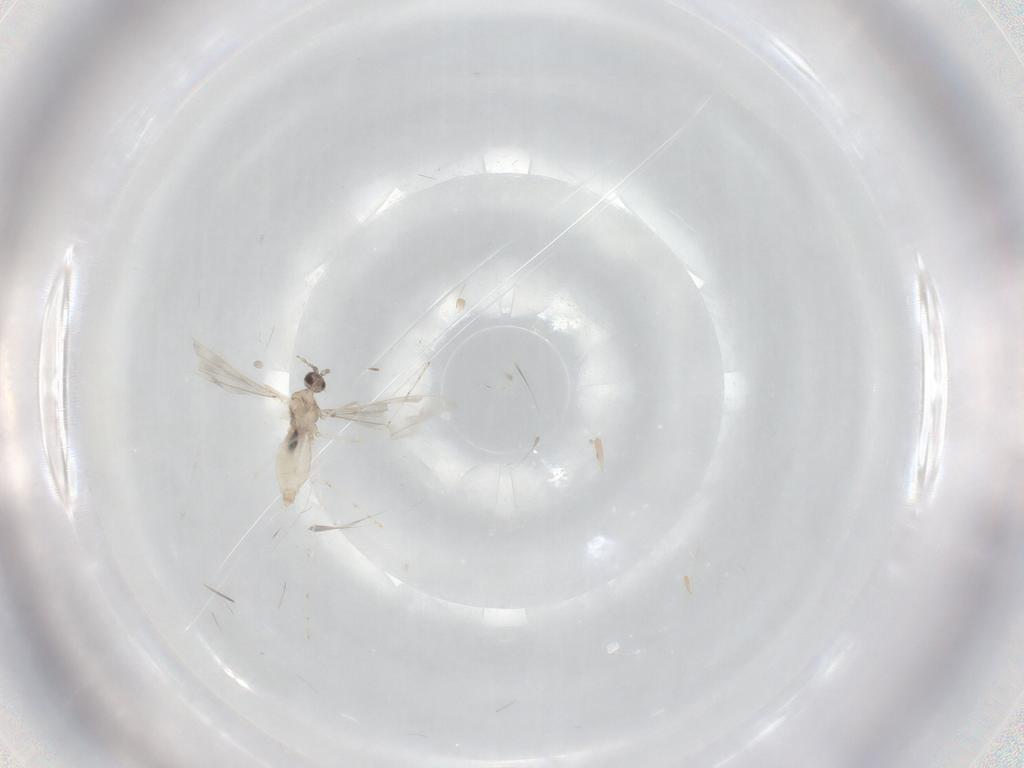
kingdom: Animalia
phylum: Arthropoda
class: Insecta
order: Diptera
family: Cecidomyiidae
